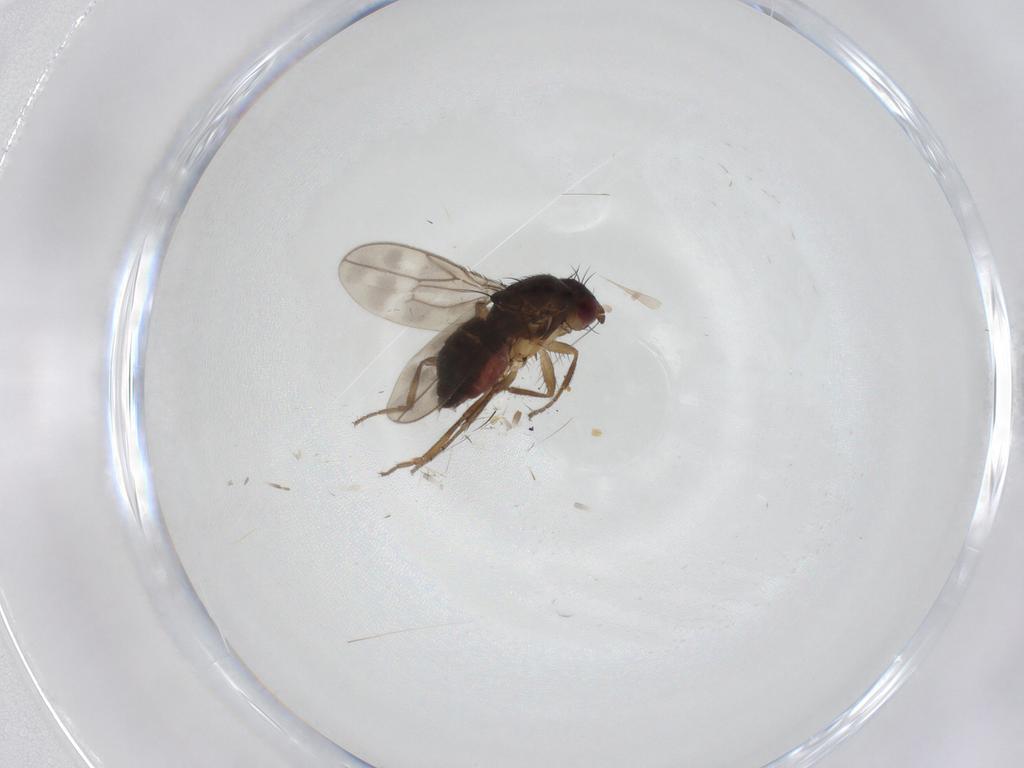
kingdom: Animalia
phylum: Arthropoda
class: Insecta
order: Diptera
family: Sphaeroceridae
